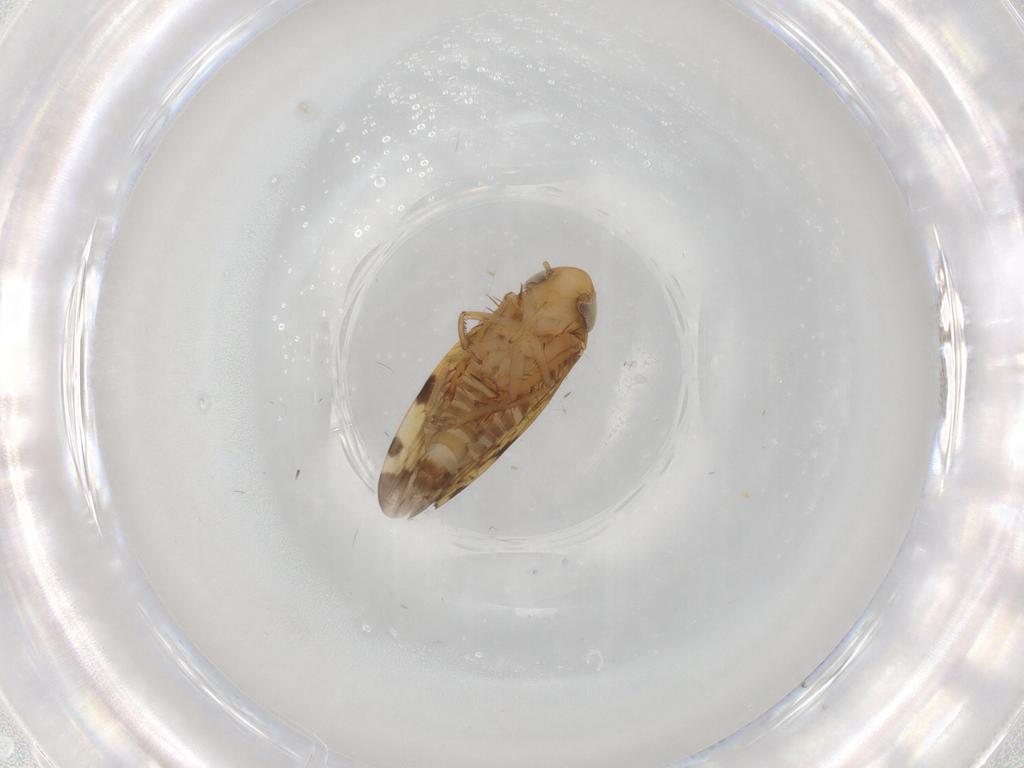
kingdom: Animalia
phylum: Arthropoda
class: Insecta
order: Hemiptera
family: Cicadellidae
